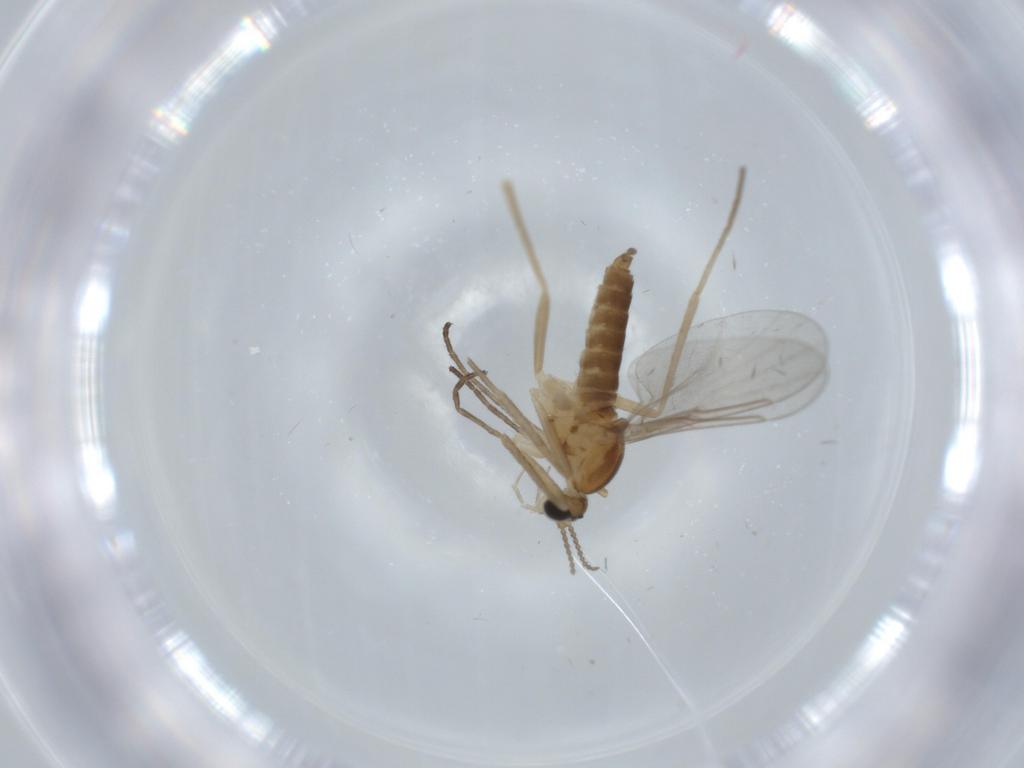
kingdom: Animalia
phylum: Arthropoda
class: Insecta
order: Diptera
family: Cecidomyiidae
